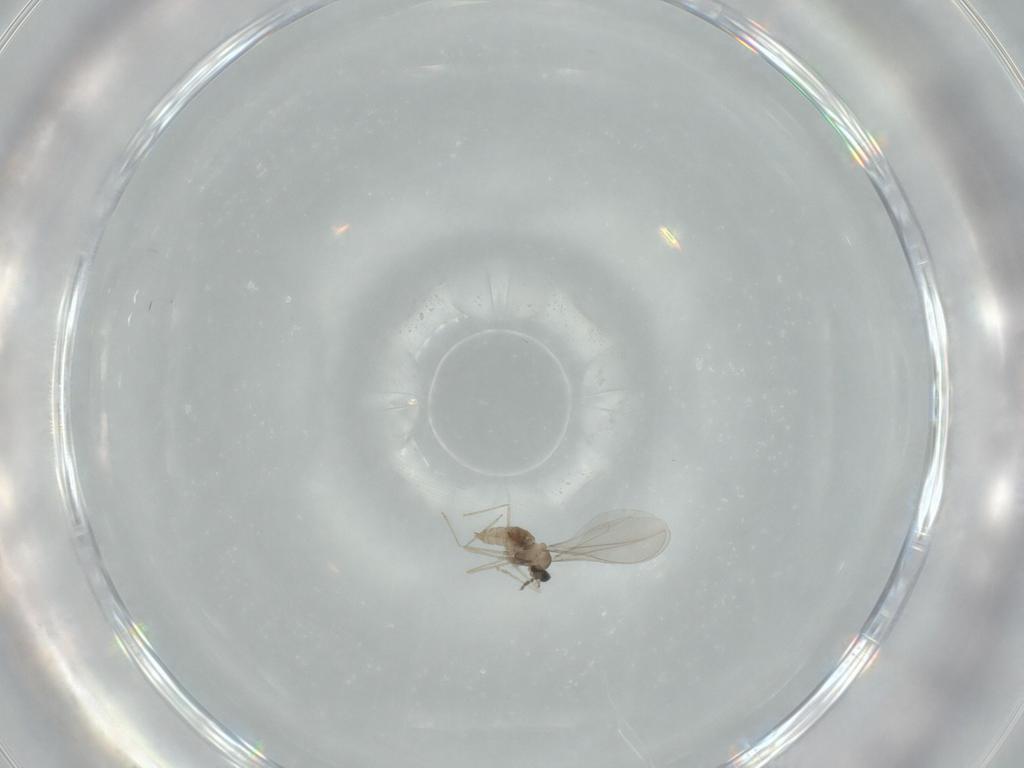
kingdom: Animalia
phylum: Arthropoda
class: Insecta
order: Diptera
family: Cecidomyiidae
